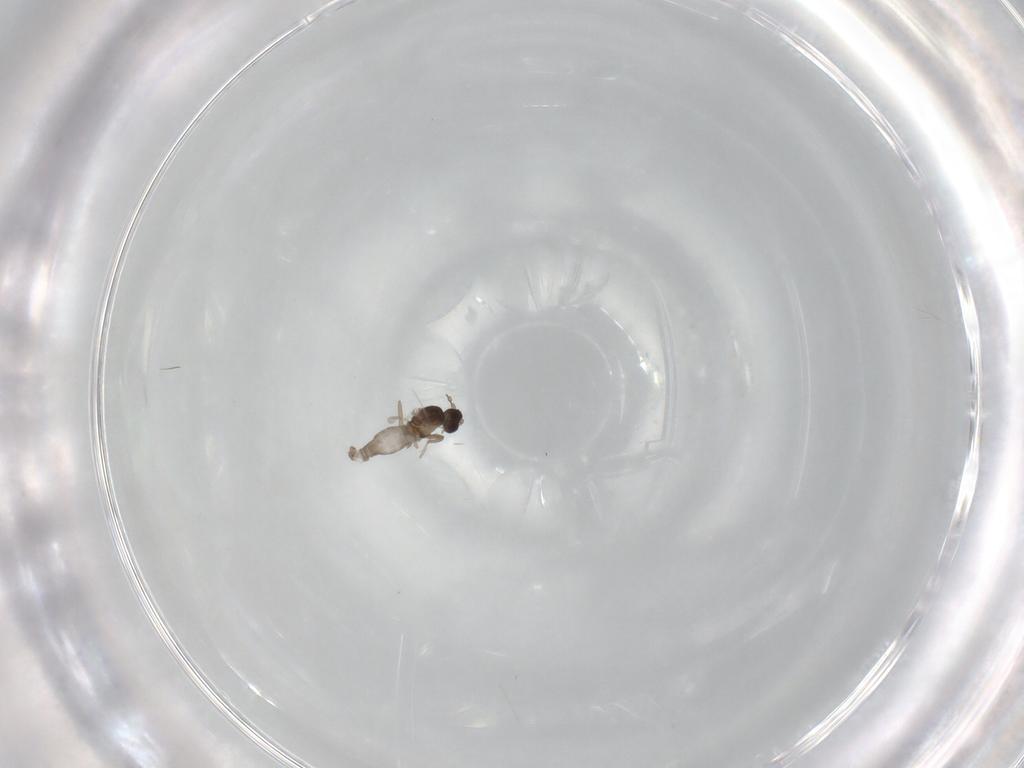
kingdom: Animalia
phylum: Arthropoda
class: Insecta
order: Diptera
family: Cecidomyiidae
